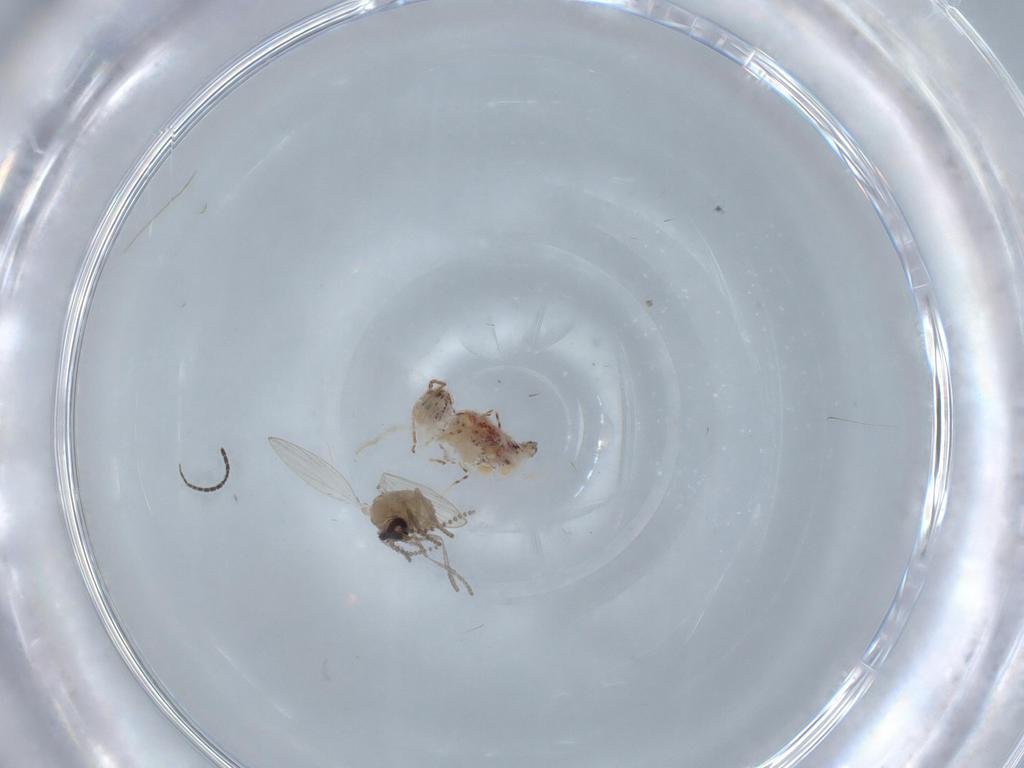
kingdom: Animalia
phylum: Arthropoda
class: Insecta
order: Diptera
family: Psychodidae
